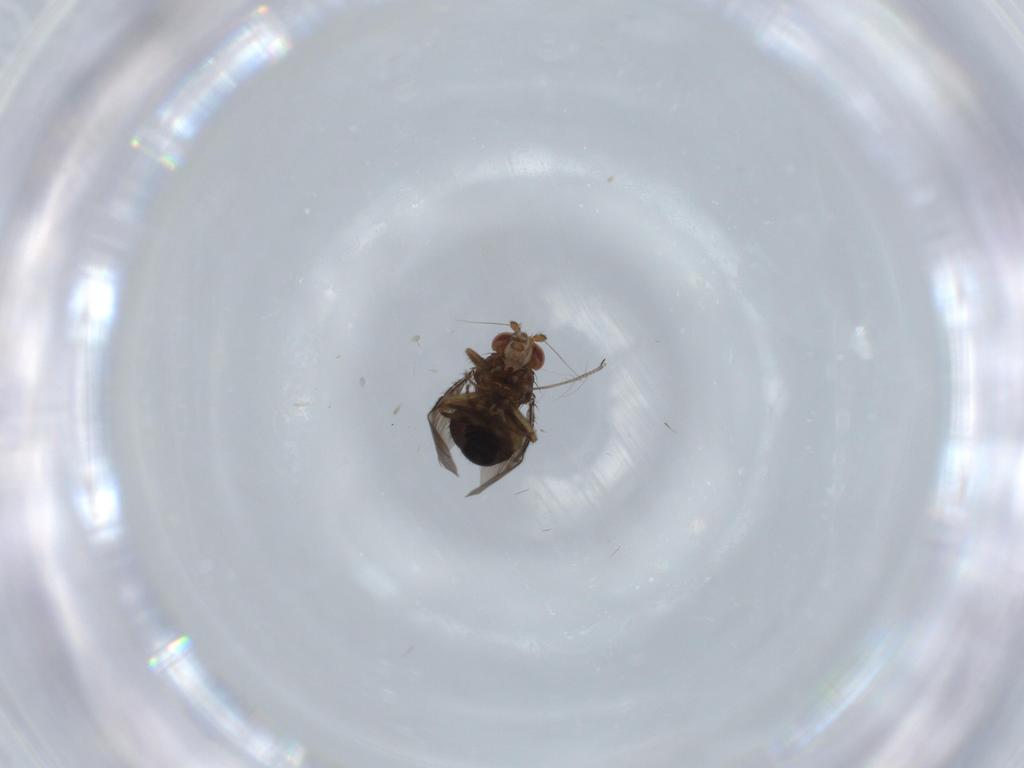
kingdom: Animalia
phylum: Arthropoda
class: Insecta
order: Diptera
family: Sphaeroceridae
